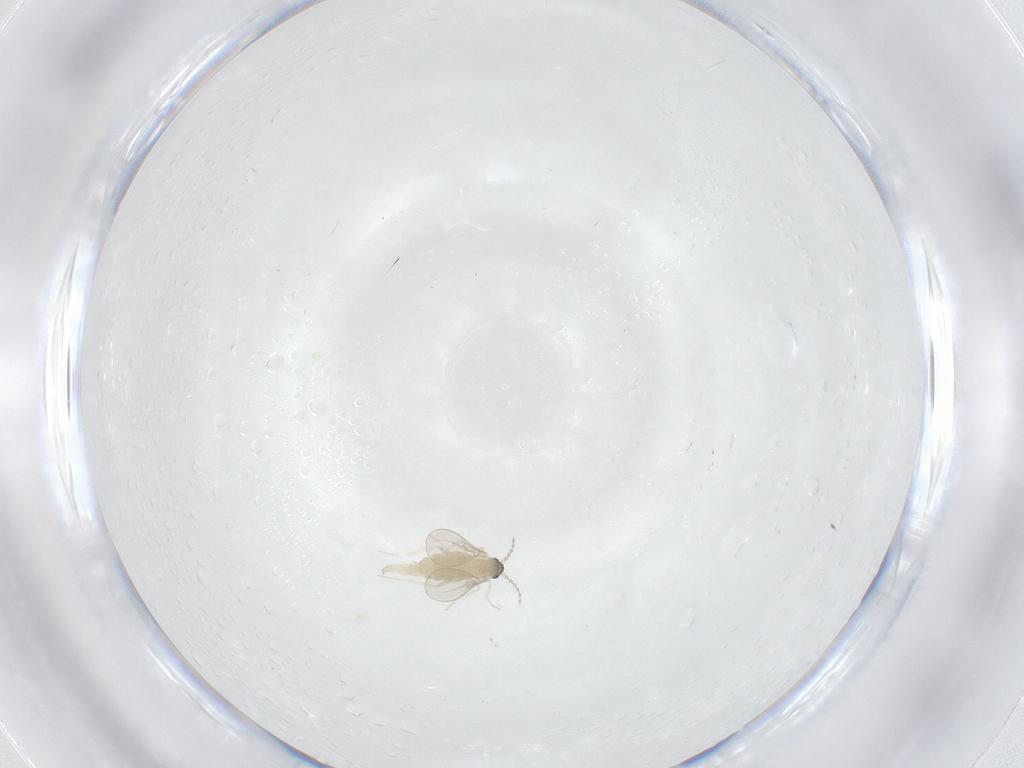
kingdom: Animalia
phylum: Arthropoda
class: Insecta
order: Diptera
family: Cecidomyiidae
